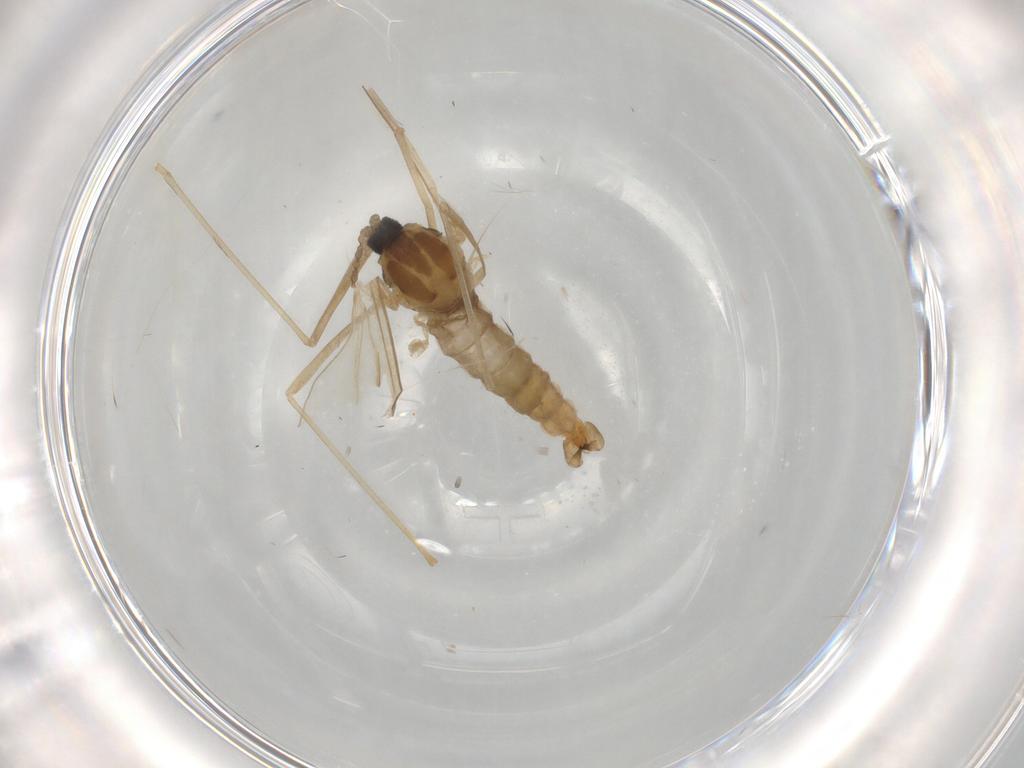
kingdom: Animalia
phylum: Arthropoda
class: Insecta
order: Diptera
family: Cecidomyiidae
